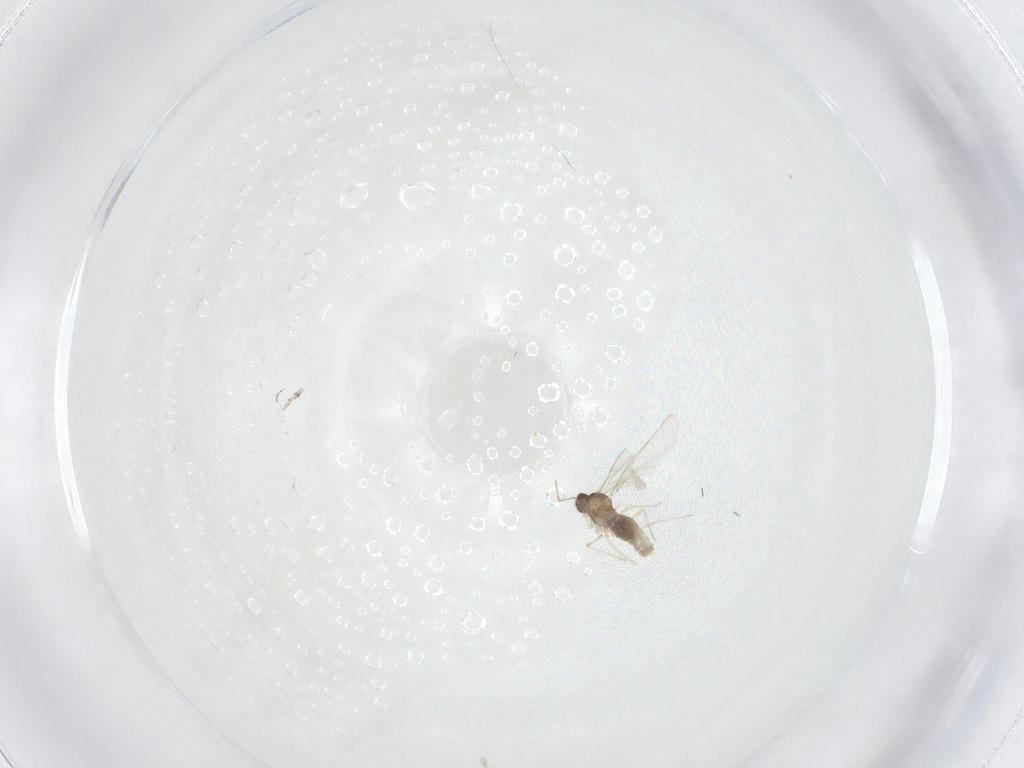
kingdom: Animalia
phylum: Arthropoda
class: Insecta
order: Diptera
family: Cecidomyiidae
